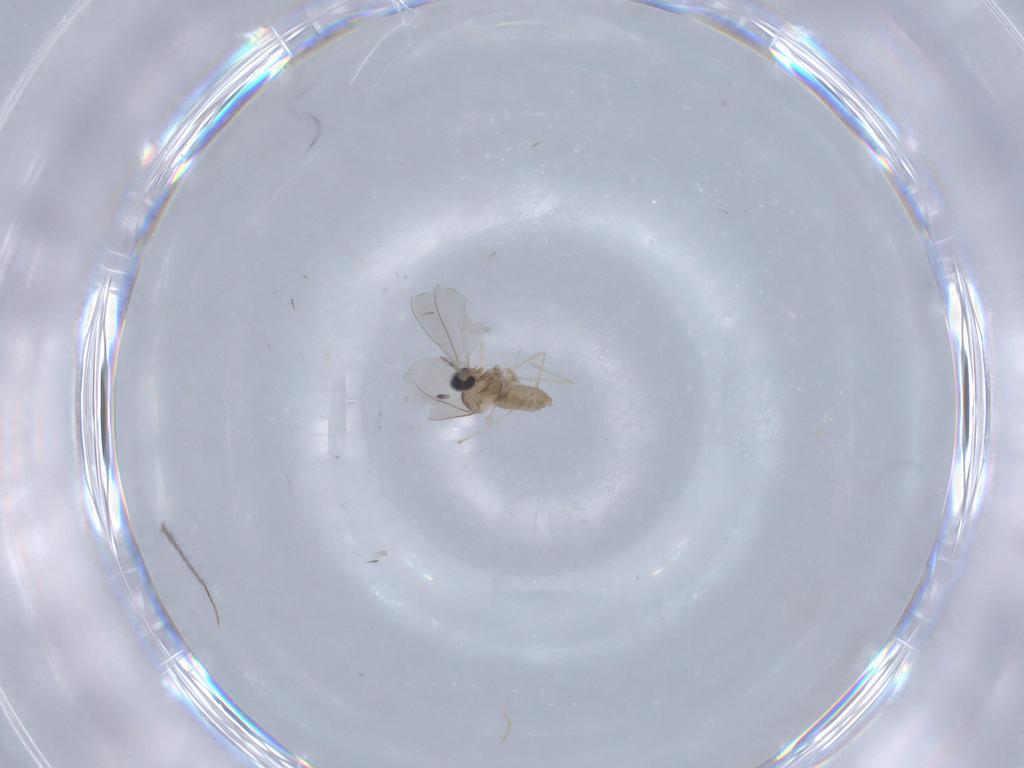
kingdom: Animalia
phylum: Arthropoda
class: Insecta
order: Diptera
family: Cecidomyiidae
